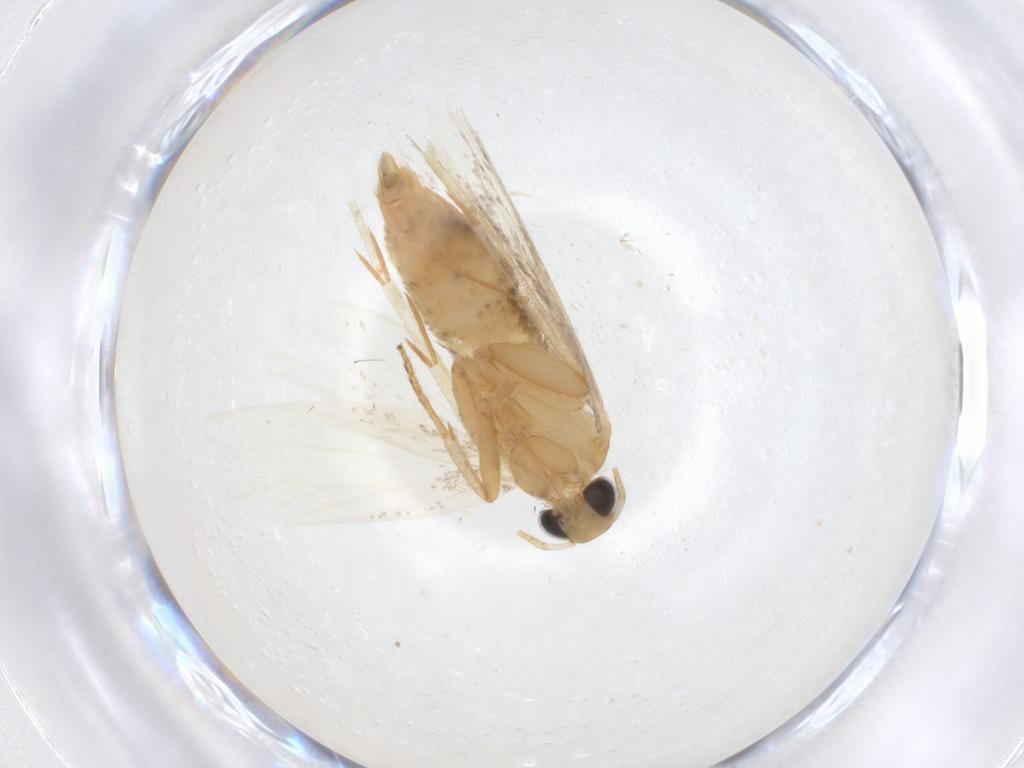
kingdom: Animalia
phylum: Arthropoda
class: Insecta
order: Lepidoptera
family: Oecophoridae
